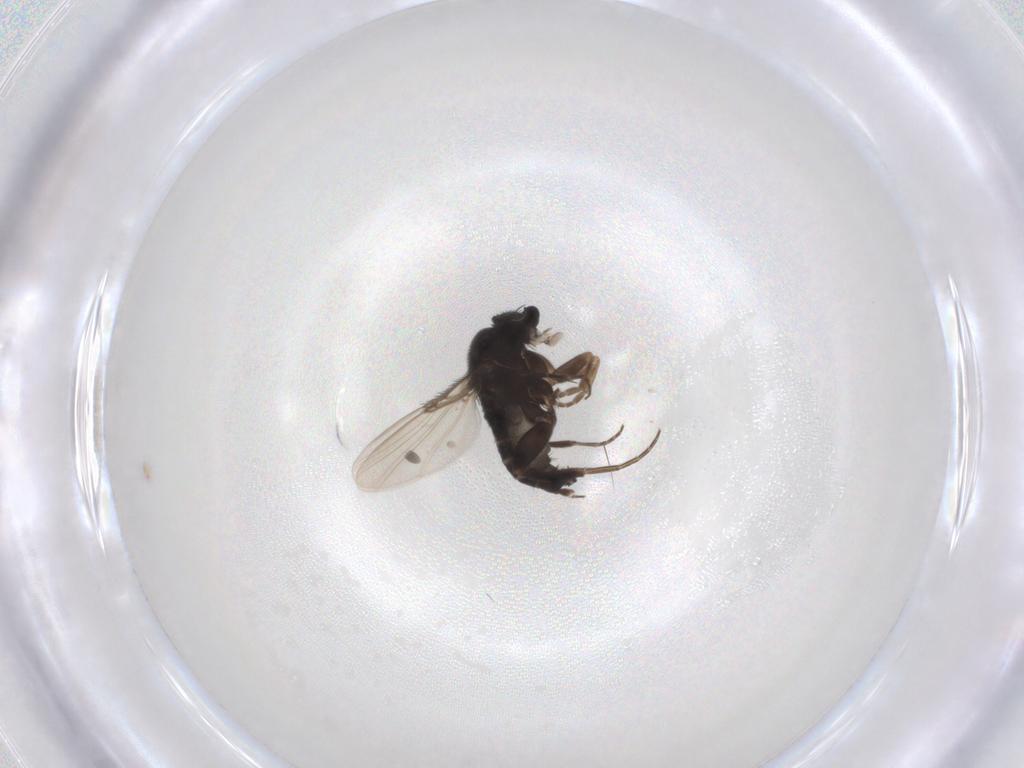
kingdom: Animalia
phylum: Arthropoda
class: Insecta
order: Diptera
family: Phoridae
